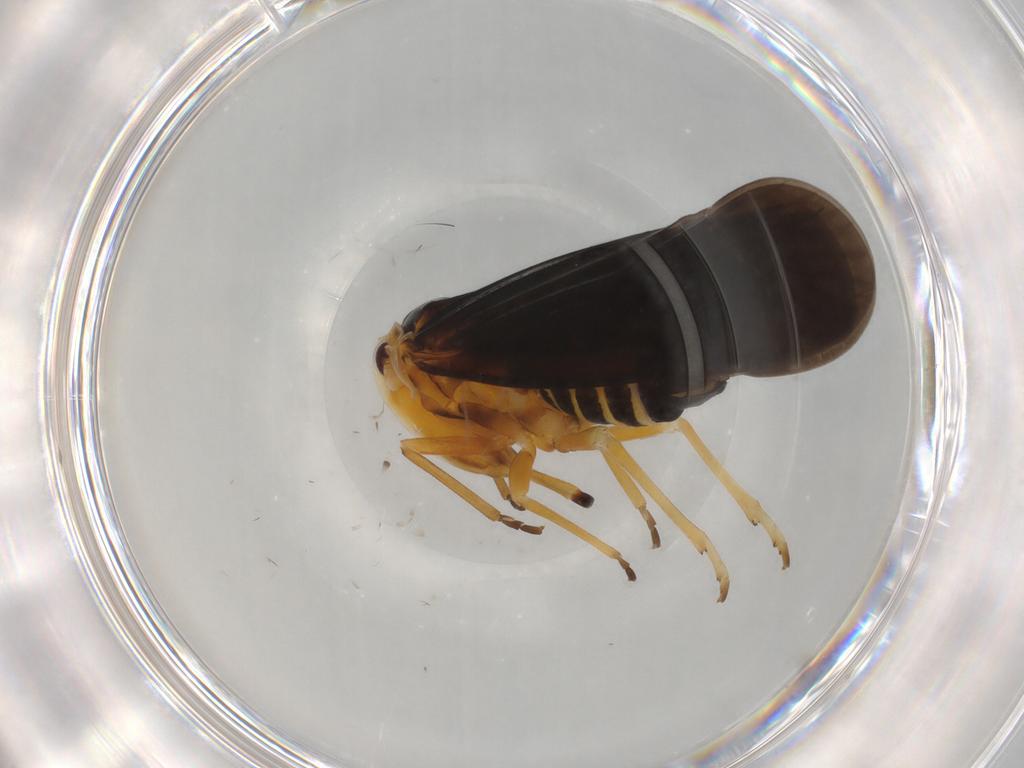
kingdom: Animalia
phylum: Arthropoda
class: Insecta
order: Hemiptera
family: Derbidae
